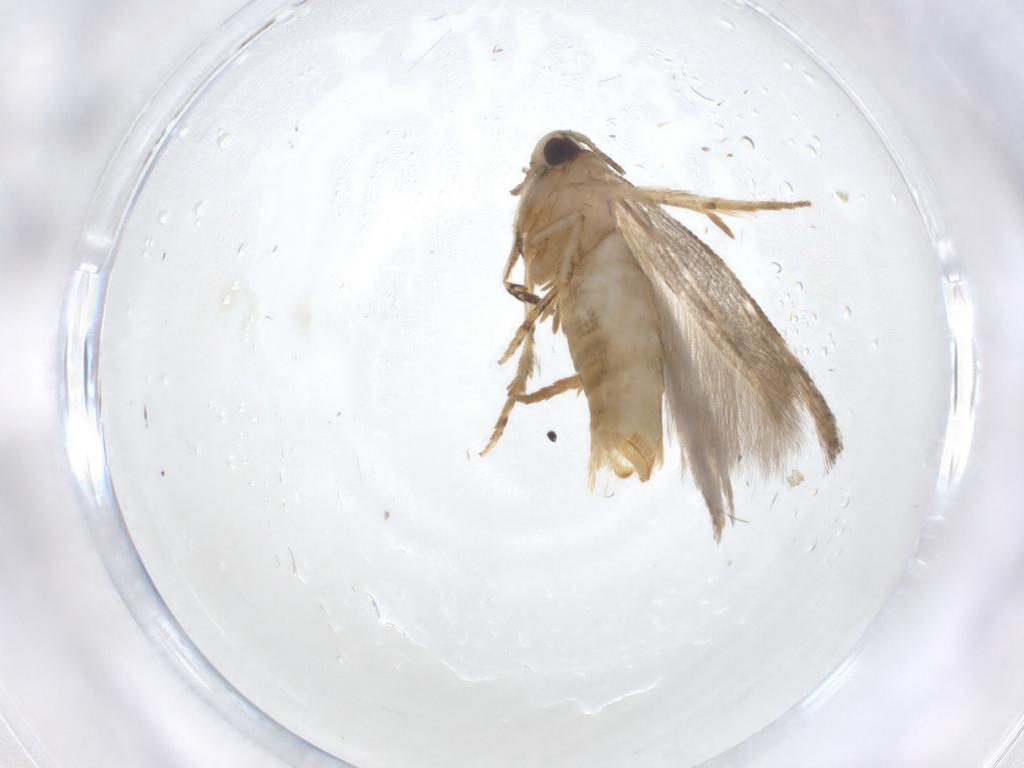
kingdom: Animalia
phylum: Arthropoda
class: Insecta
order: Lepidoptera
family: Gelechiidae
